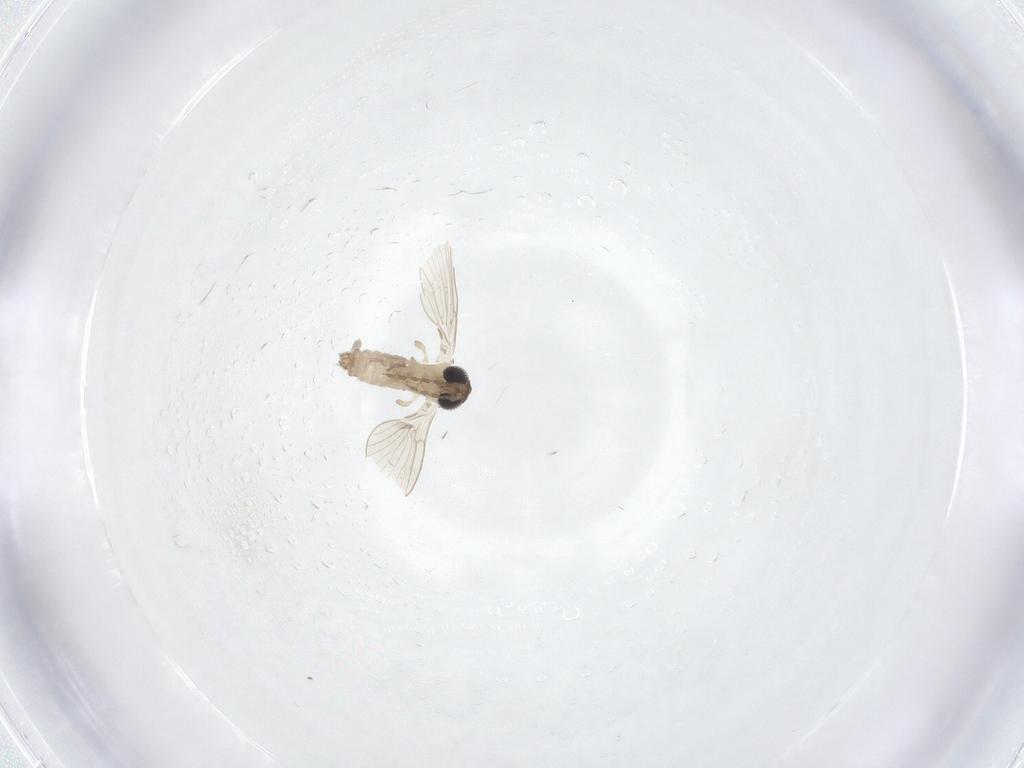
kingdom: Animalia
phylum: Arthropoda
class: Insecta
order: Diptera
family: Psychodidae
